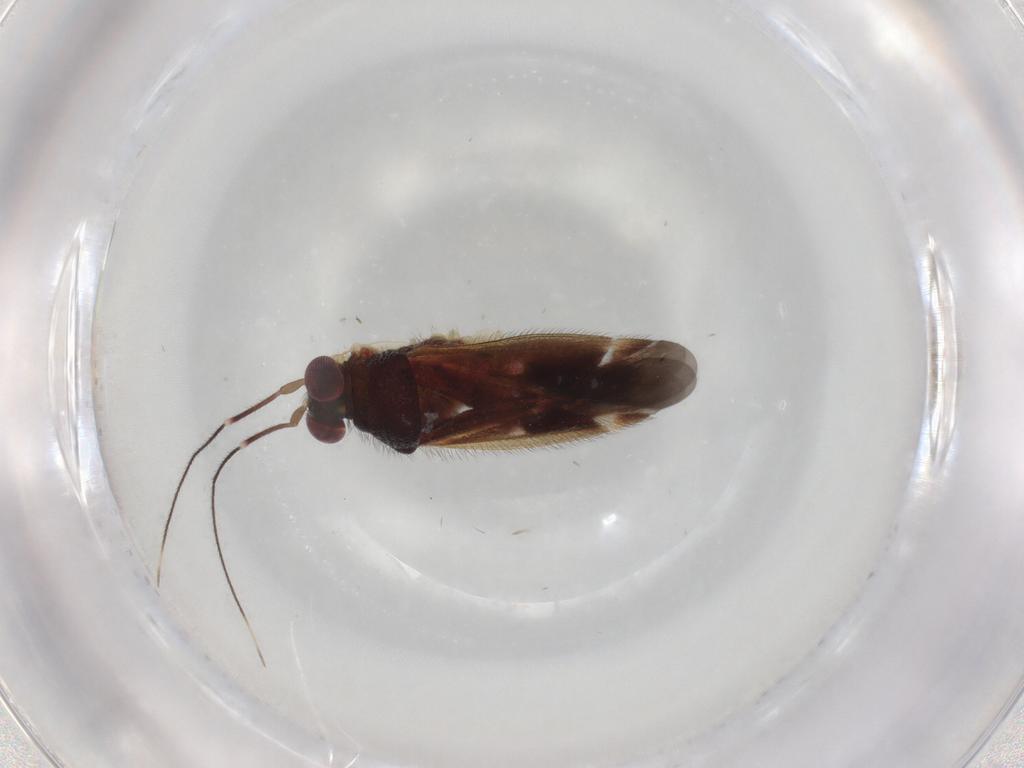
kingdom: Animalia
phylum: Arthropoda
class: Insecta
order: Hemiptera
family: Miridae
